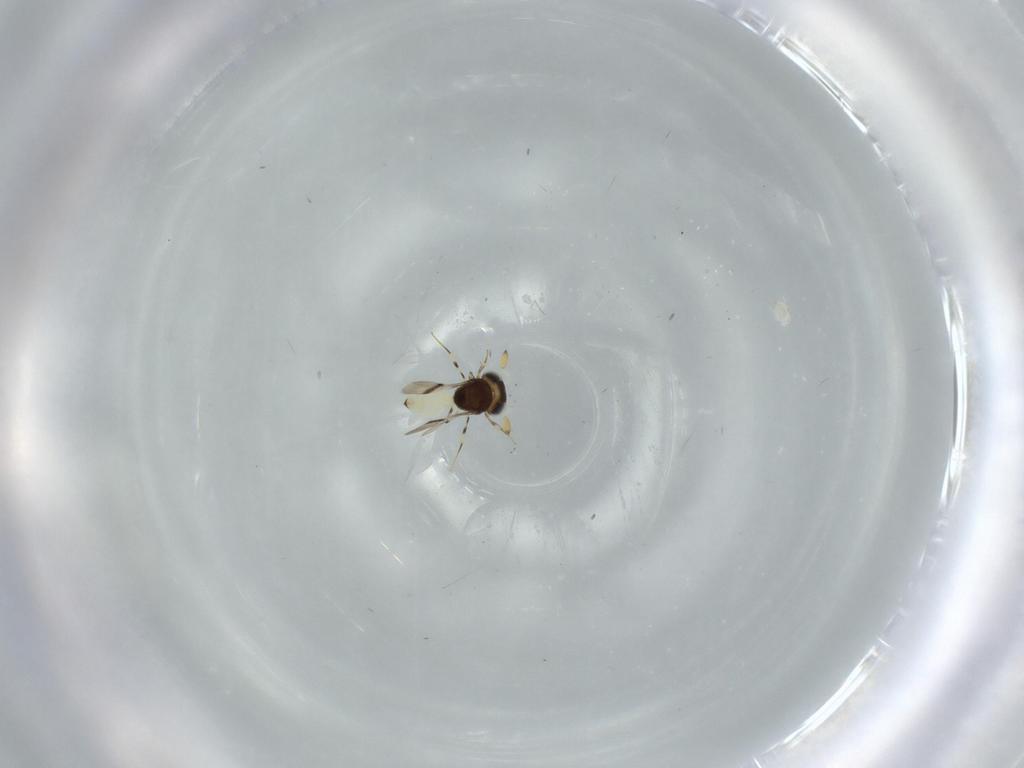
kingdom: Animalia
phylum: Arthropoda
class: Insecta
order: Hymenoptera
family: Scelionidae
